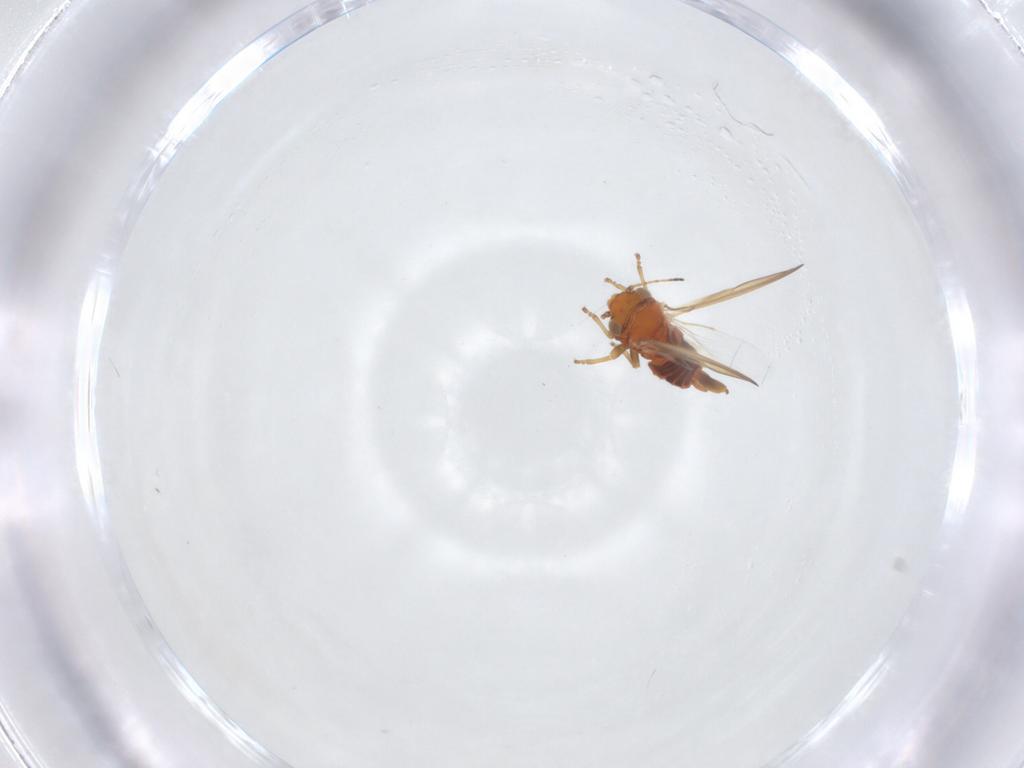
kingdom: Animalia
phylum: Arthropoda
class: Insecta
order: Hemiptera
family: Aphalaridae
